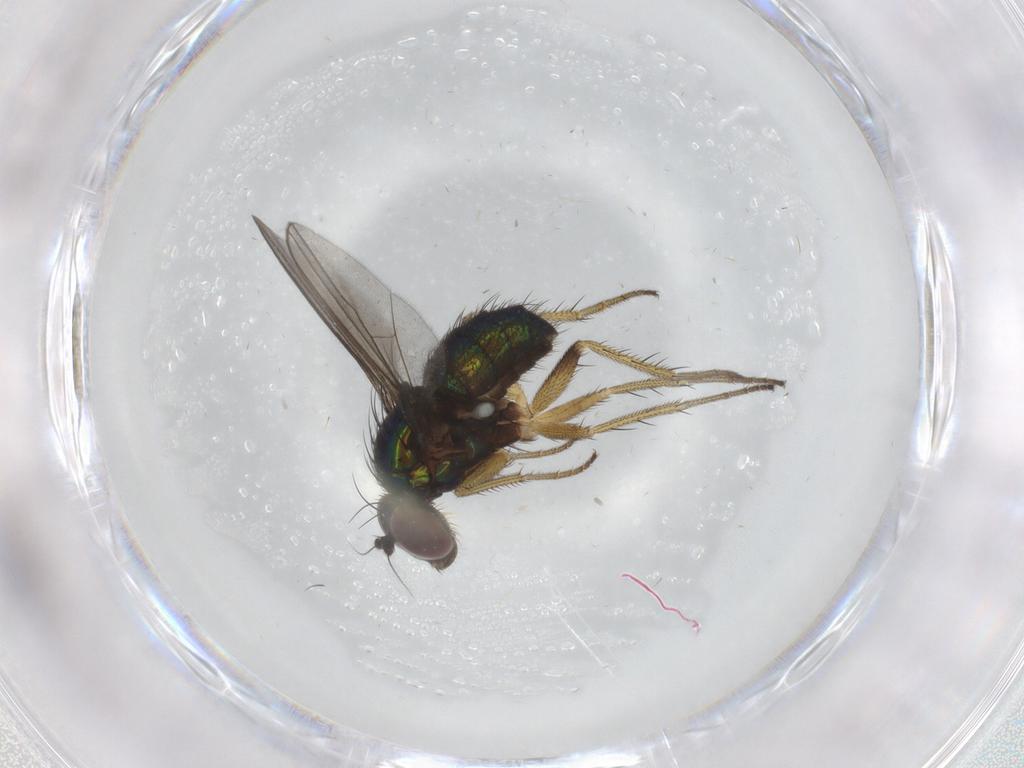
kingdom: Animalia
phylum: Arthropoda
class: Insecta
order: Diptera
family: Dolichopodidae
